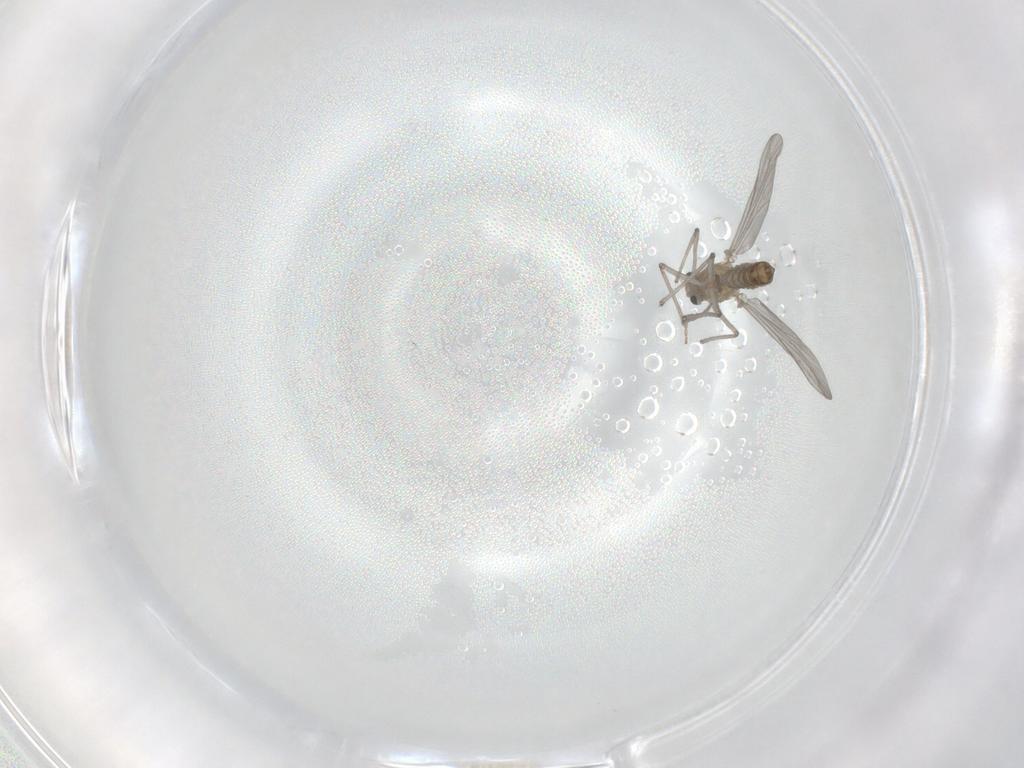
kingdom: Animalia
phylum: Arthropoda
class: Insecta
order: Diptera
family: Chironomidae
